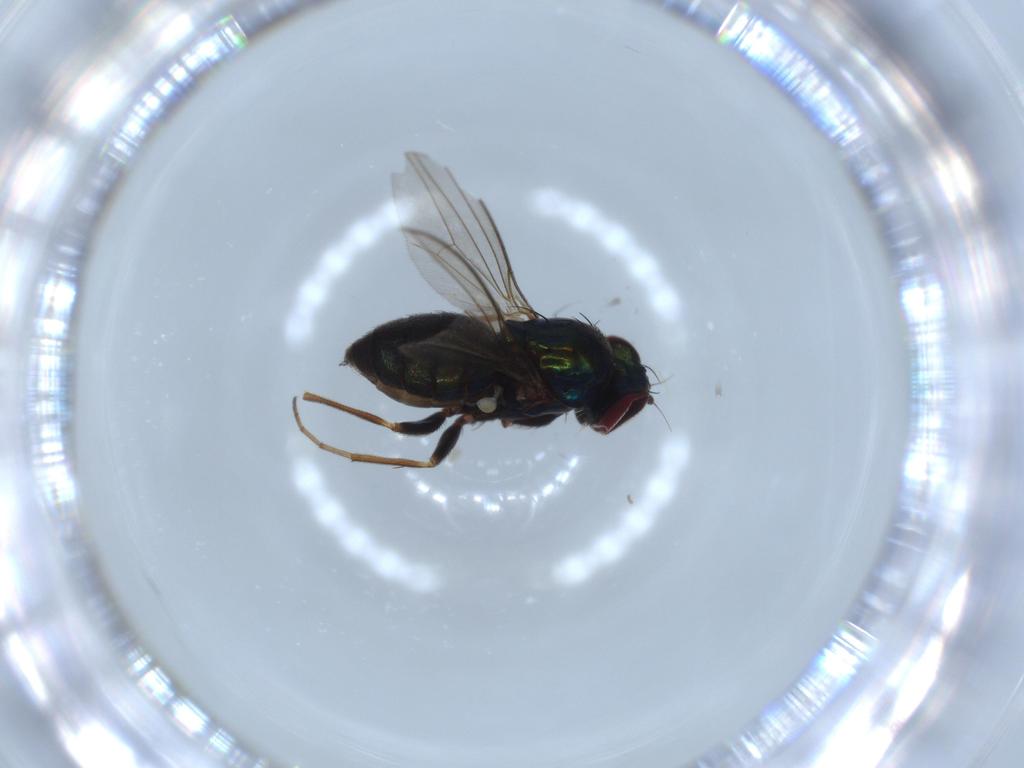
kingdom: Animalia
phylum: Arthropoda
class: Insecta
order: Diptera
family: Dolichopodidae
